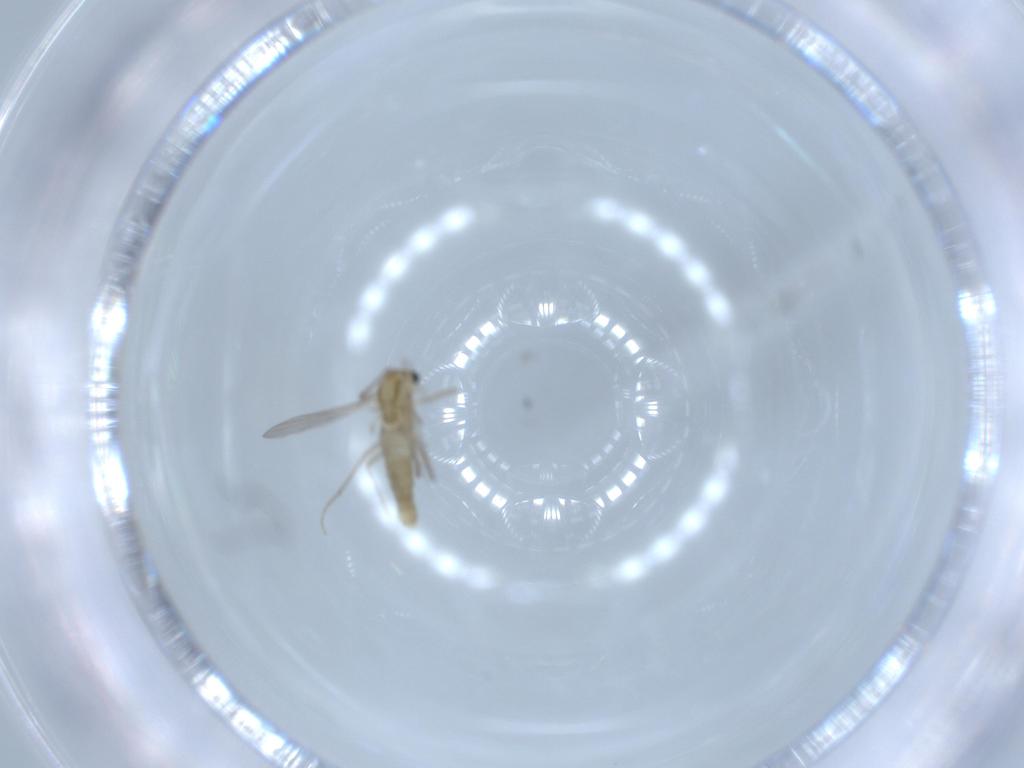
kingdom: Animalia
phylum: Arthropoda
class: Insecta
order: Diptera
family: Chironomidae
